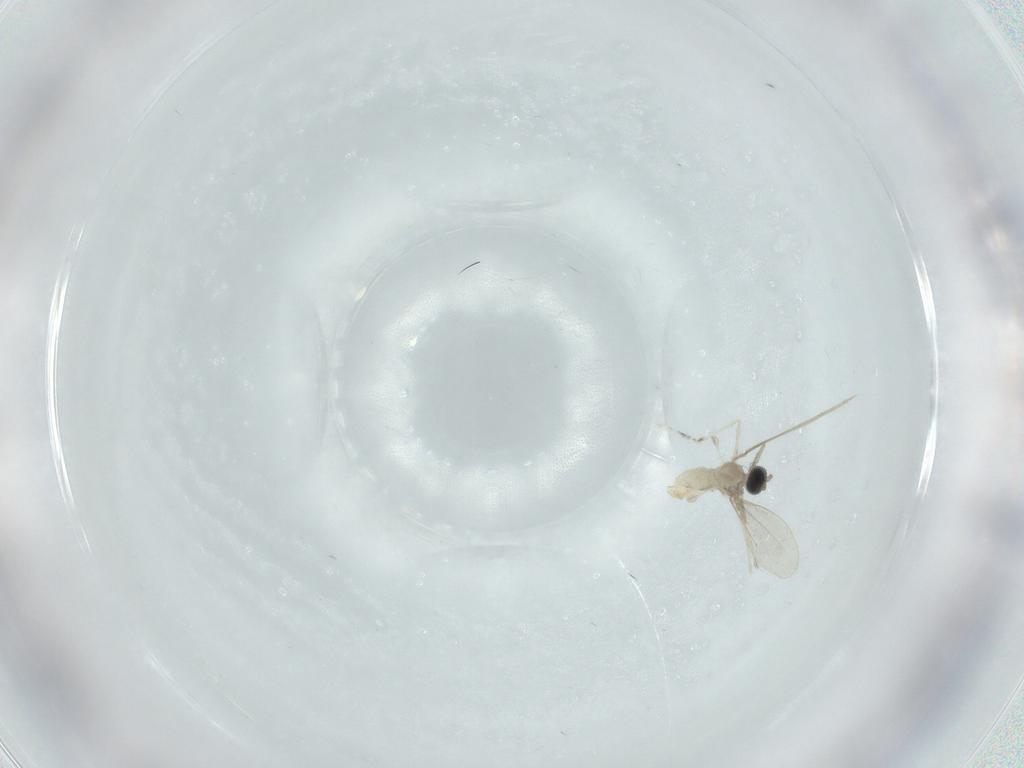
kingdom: Animalia
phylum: Arthropoda
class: Insecta
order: Diptera
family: Cecidomyiidae
